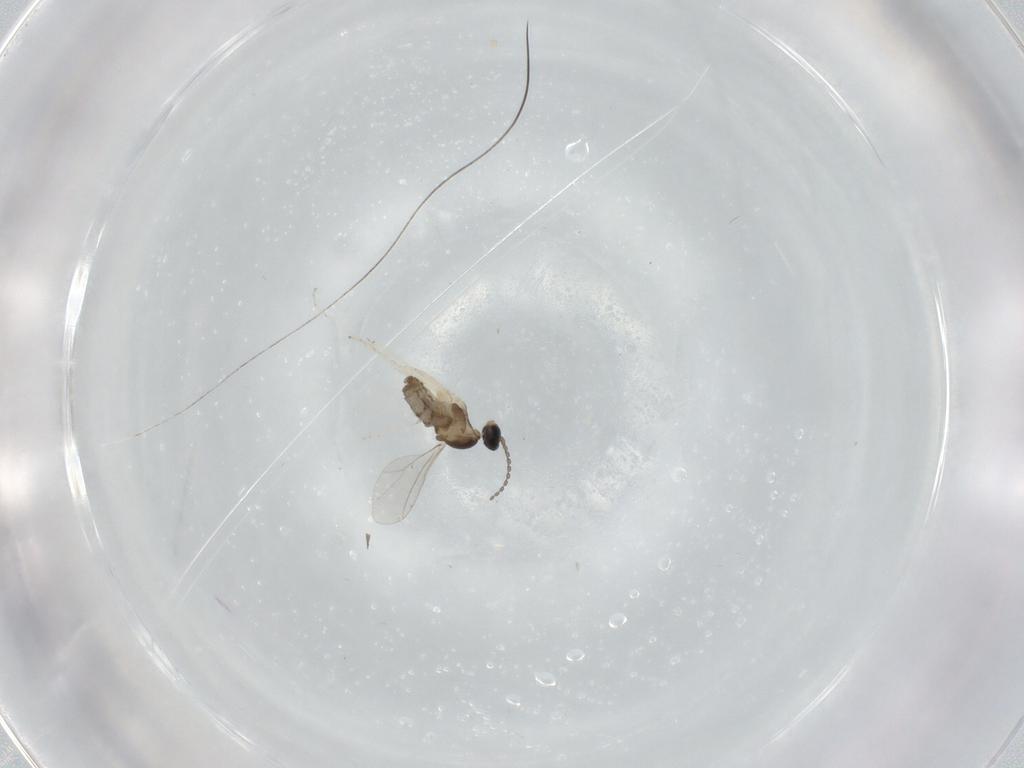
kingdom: Animalia
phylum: Arthropoda
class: Insecta
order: Diptera
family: Cecidomyiidae
